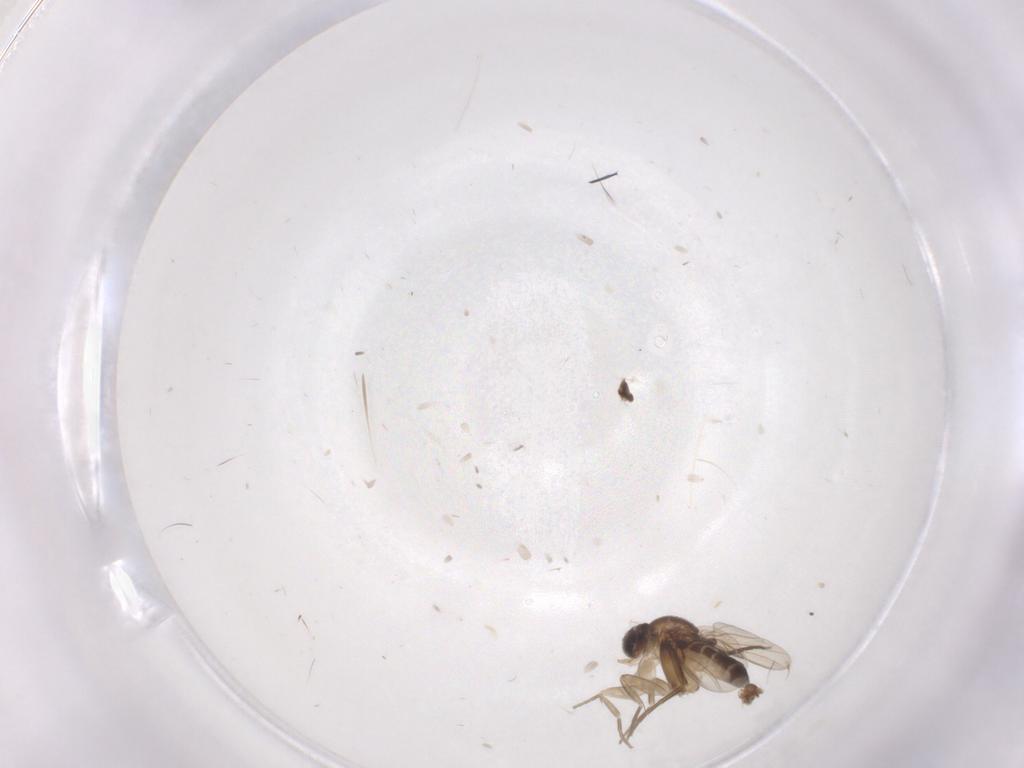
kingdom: Animalia
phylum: Arthropoda
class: Insecta
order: Diptera
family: Phoridae
